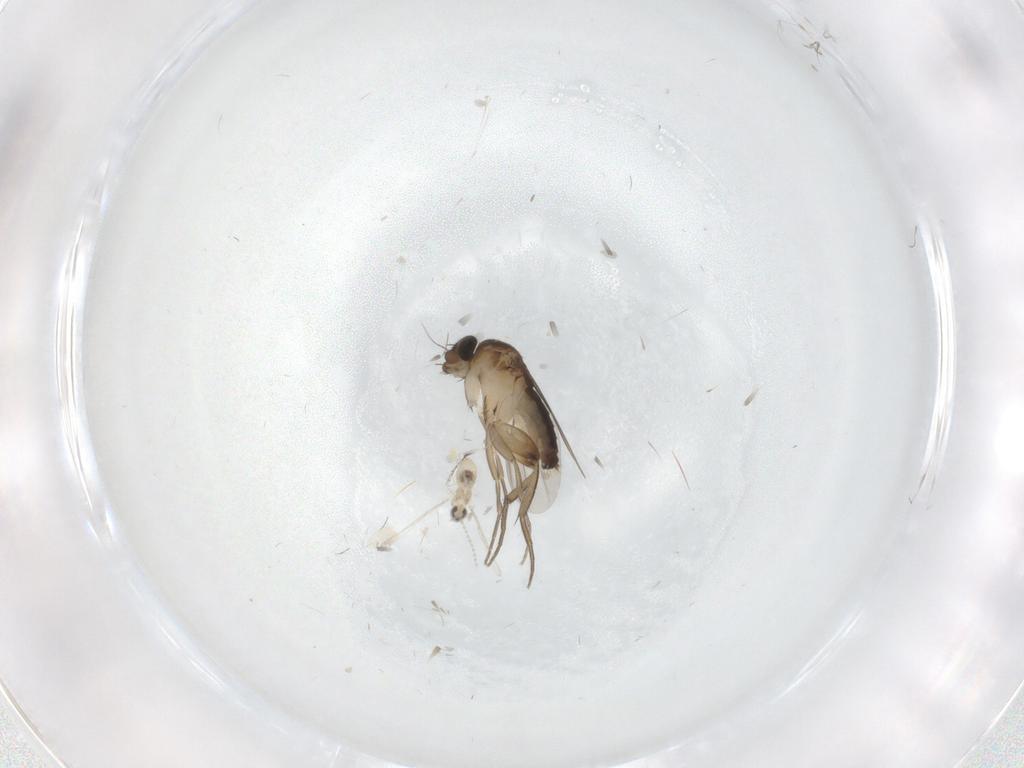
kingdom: Animalia
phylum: Arthropoda
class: Insecta
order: Diptera
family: Phoridae
